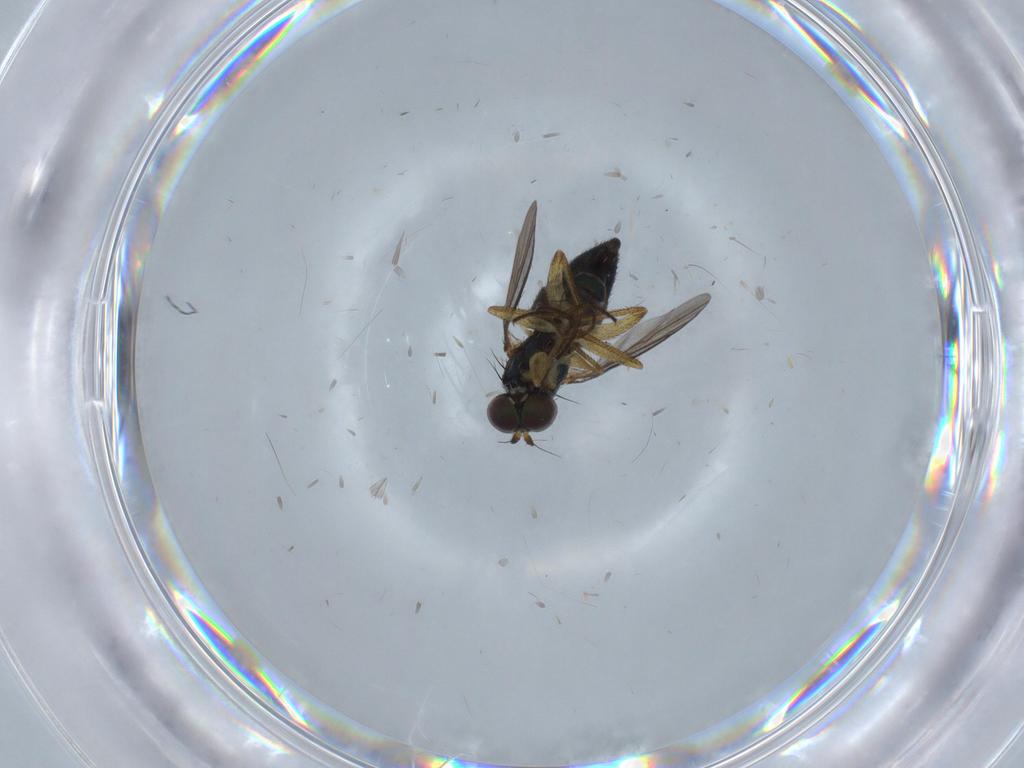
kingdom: Animalia
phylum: Arthropoda
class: Insecta
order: Diptera
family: Dolichopodidae
